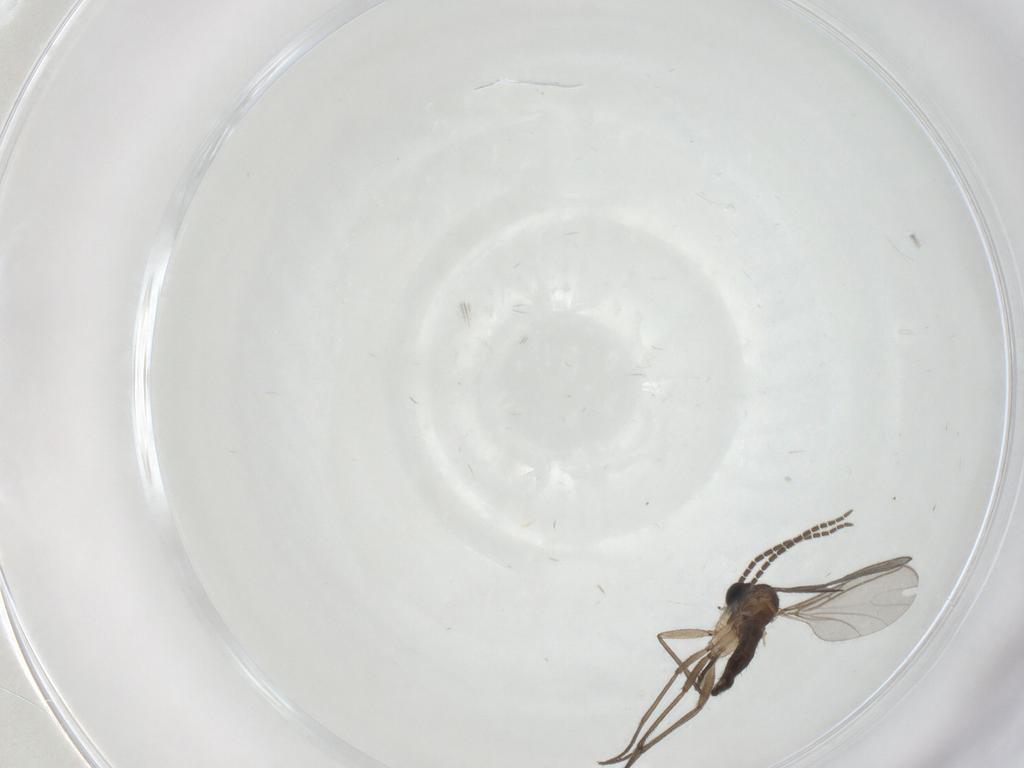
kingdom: Animalia
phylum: Arthropoda
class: Insecta
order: Diptera
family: Sciaridae
